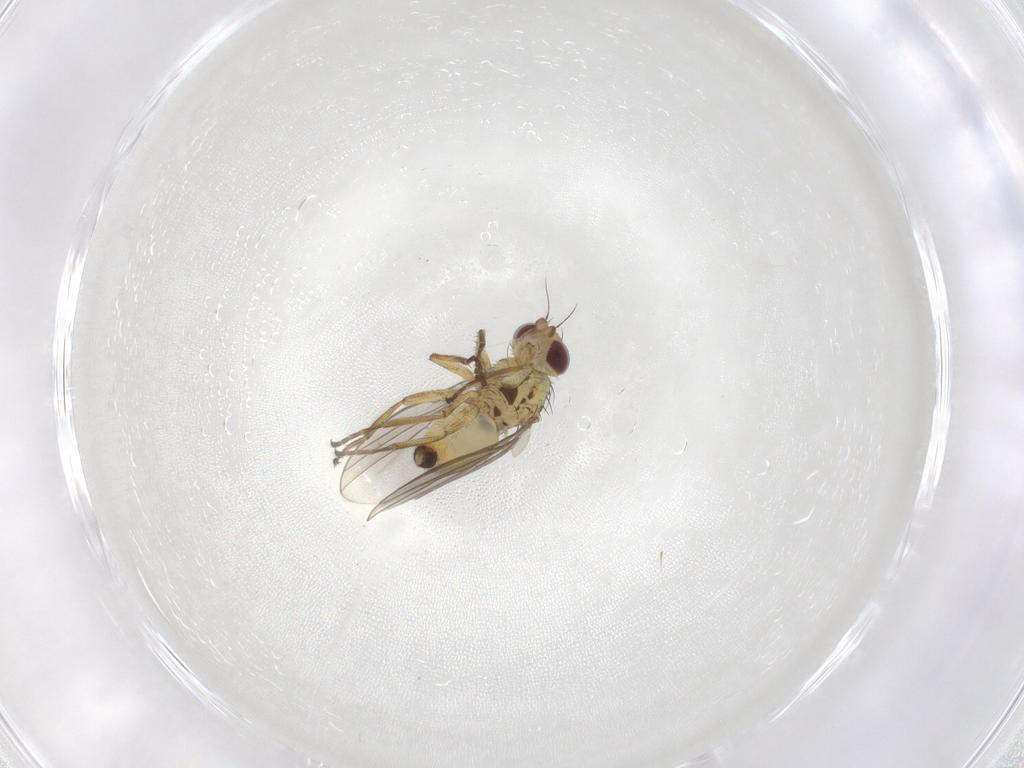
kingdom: Animalia
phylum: Arthropoda
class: Insecta
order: Diptera
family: Agromyzidae
